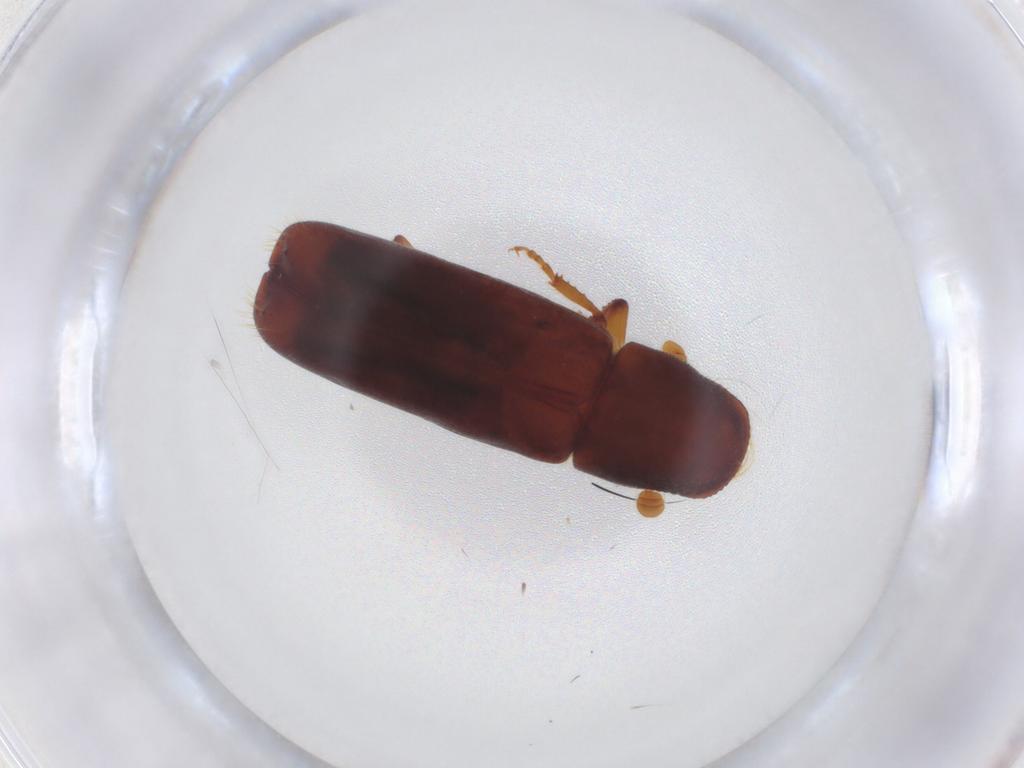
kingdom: Animalia
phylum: Arthropoda
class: Insecta
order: Coleoptera
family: Curculionidae
